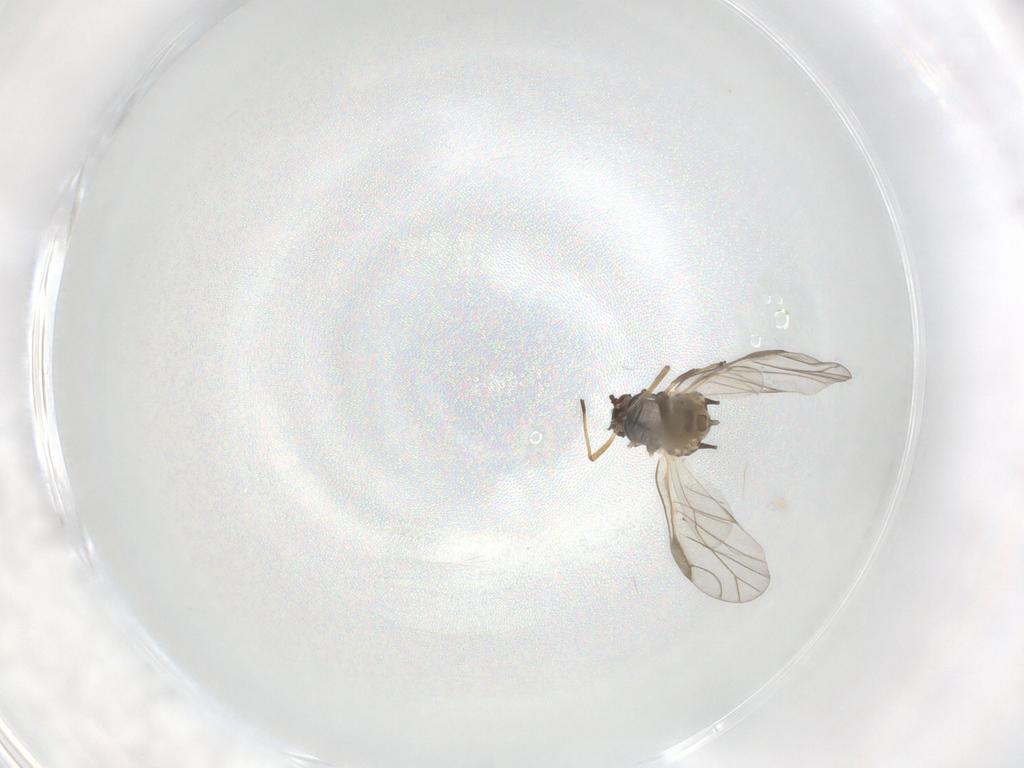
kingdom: Animalia
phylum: Arthropoda
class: Insecta
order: Hemiptera
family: Aphididae
